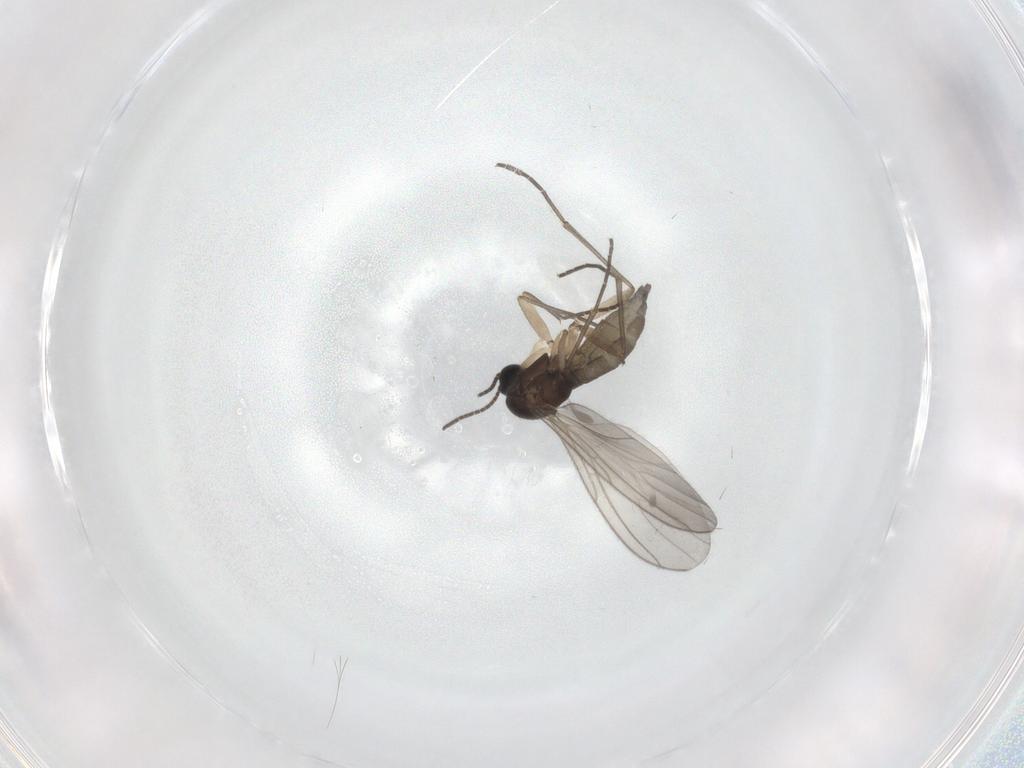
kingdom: Animalia
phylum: Arthropoda
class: Insecta
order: Diptera
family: Sciaridae
